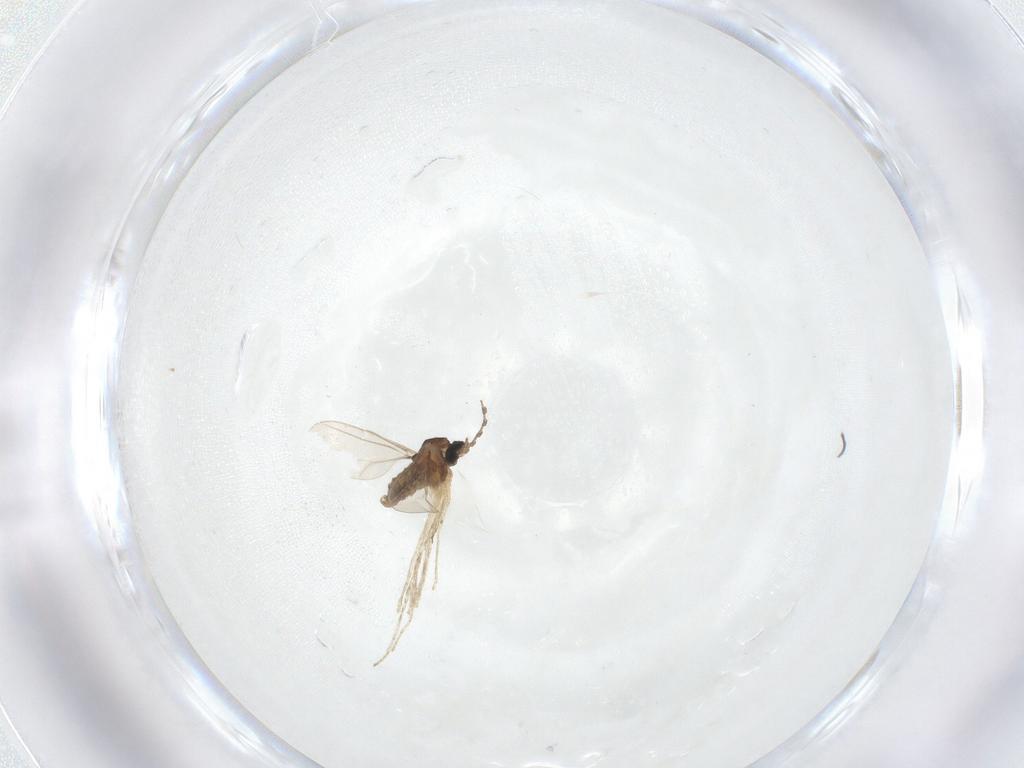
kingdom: Animalia
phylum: Arthropoda
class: Insecta
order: Diptera
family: Cecidomyiidae
